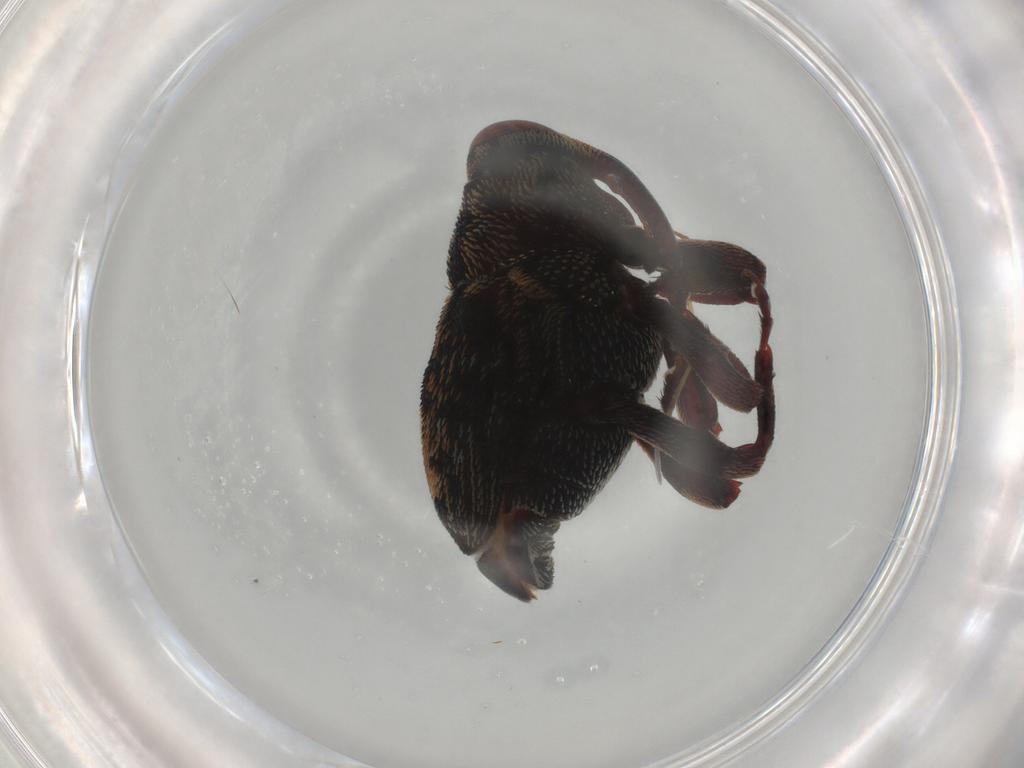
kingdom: Animalia
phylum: Arthropoda
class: Insecta
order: Coleoptera
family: Curculionidae
